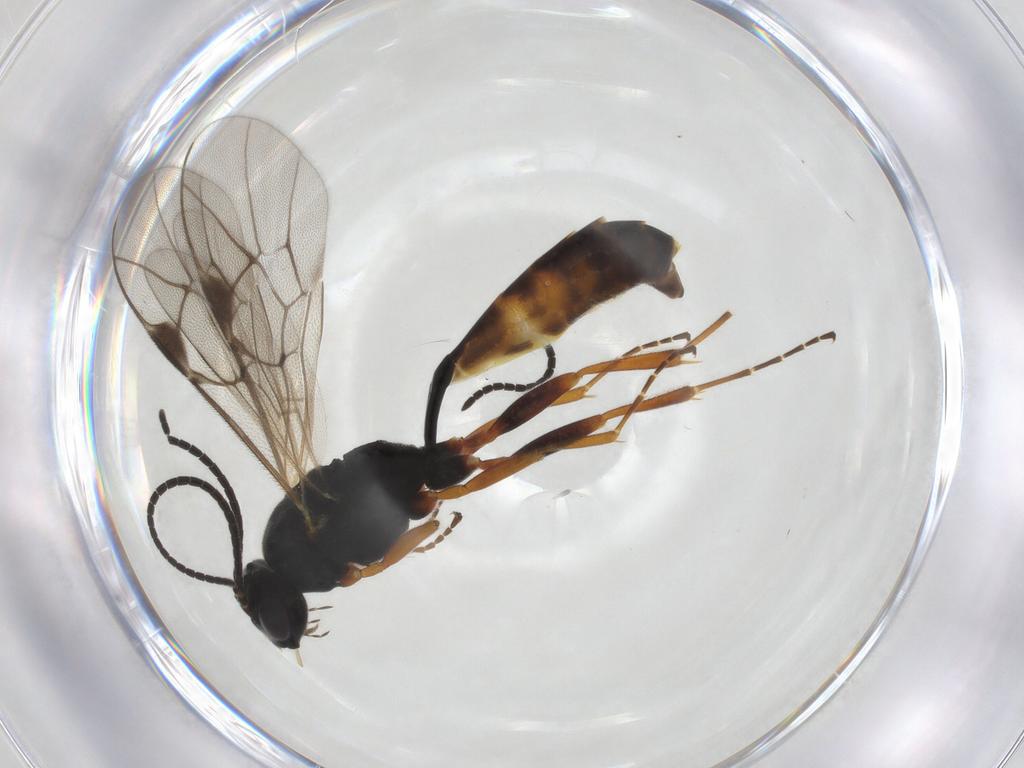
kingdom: Animalia
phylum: Arthropoda
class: Insecta
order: Hymenoptera
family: Ichneumonidae
